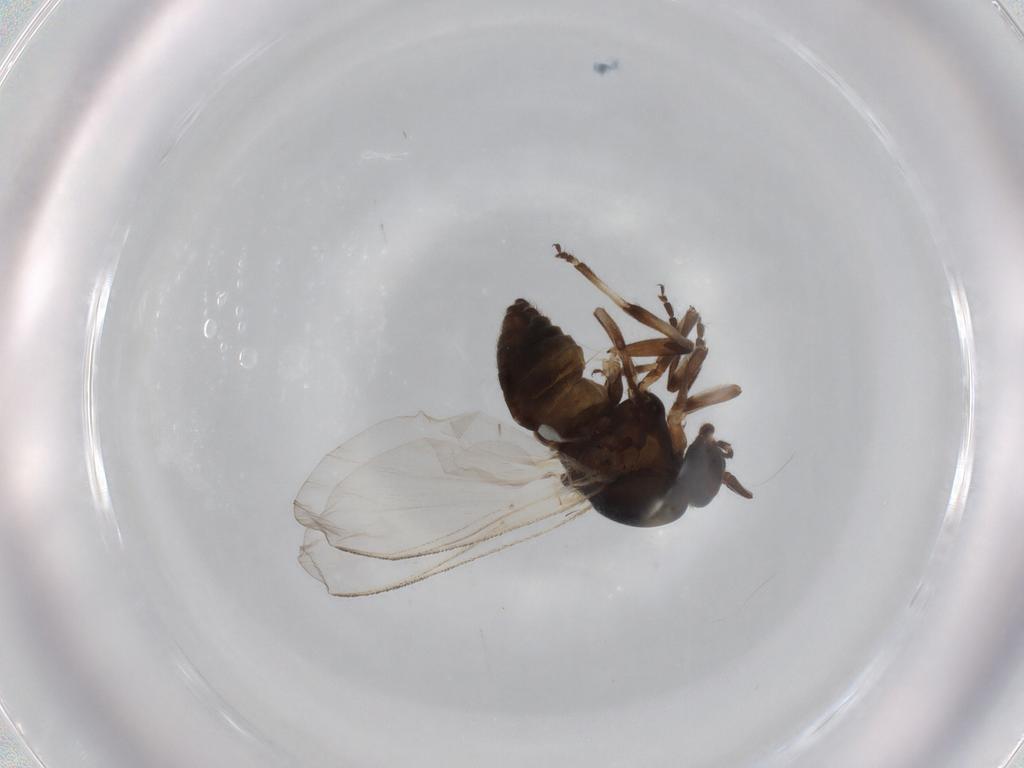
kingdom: Animalia
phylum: Arthropoda
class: Insecta
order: Diptera
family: Simuliidae
